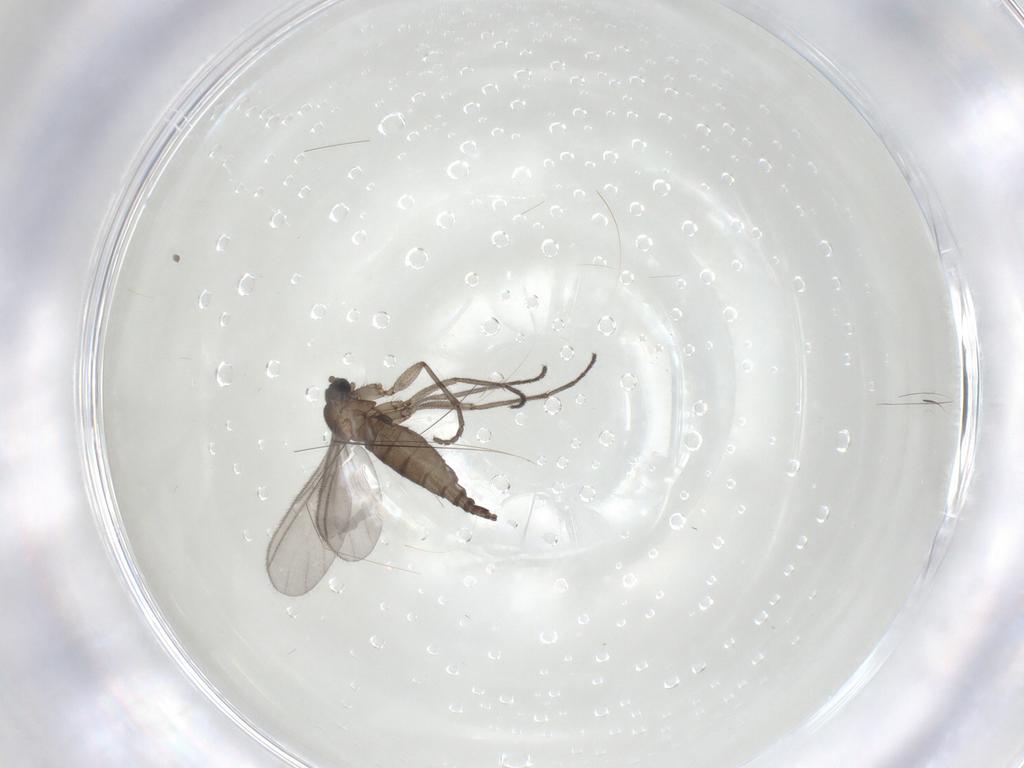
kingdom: Animalia
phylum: Arthropoda
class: Insecta
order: Diptera
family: Sciaridae
